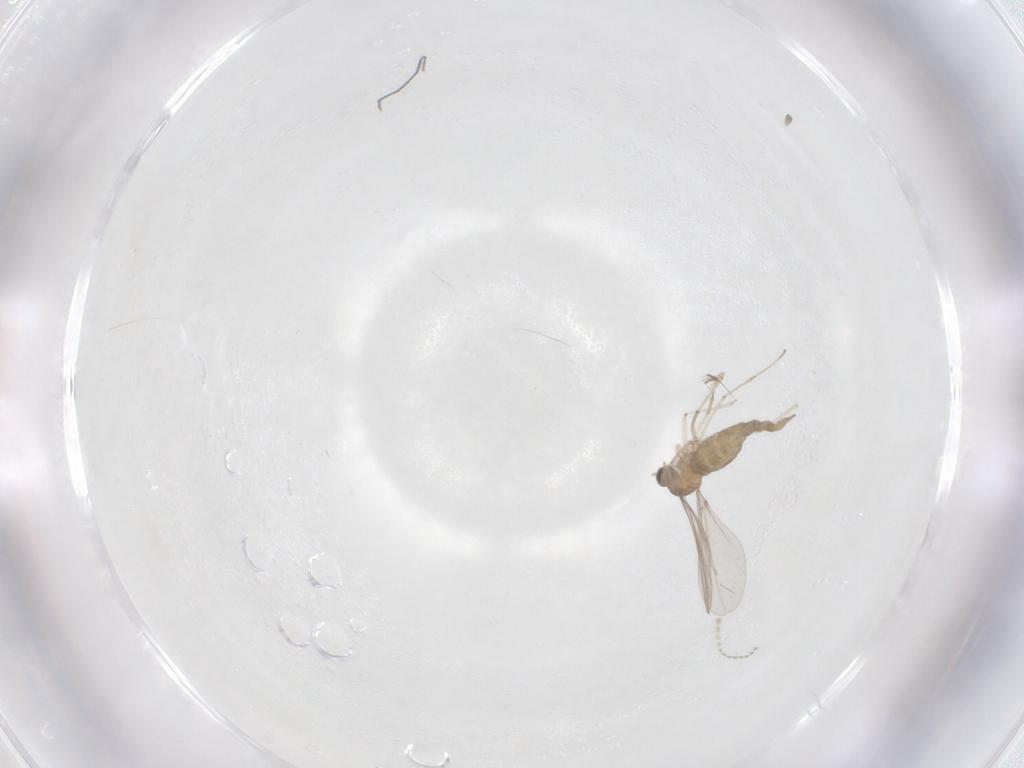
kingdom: Animalia
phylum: Arthropoda
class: Insecta
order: Diptera
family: Cecidomyiidae
